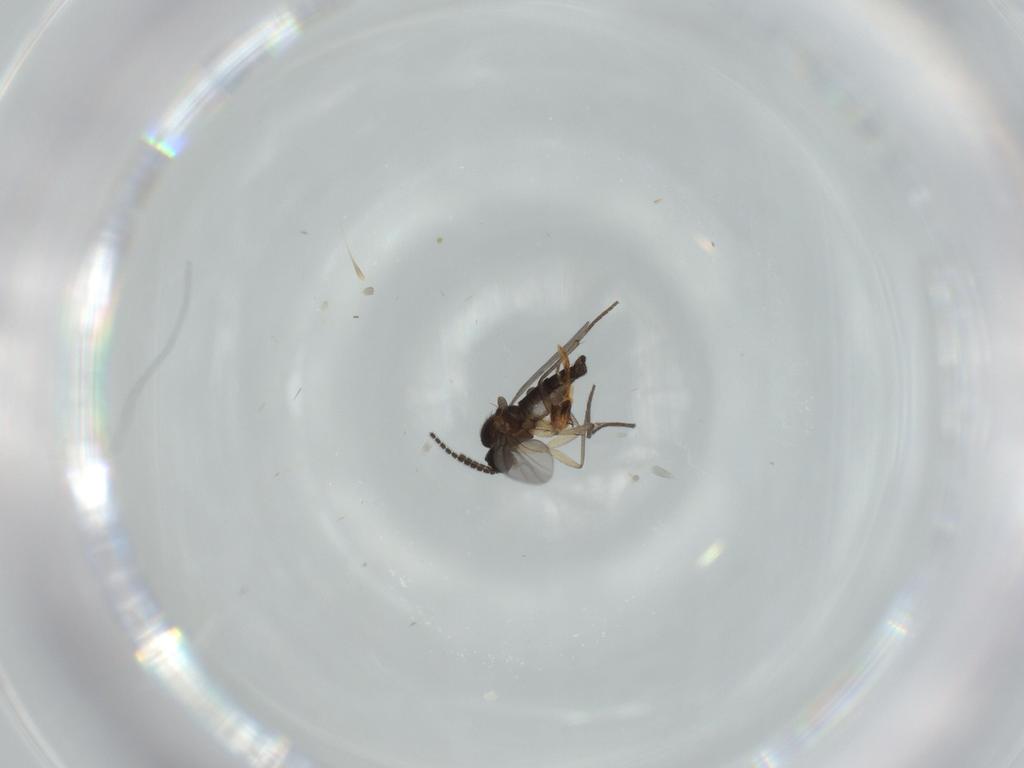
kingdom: Animalia
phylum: Arthropoda
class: Insecta
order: Diptera
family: Sciaridae
